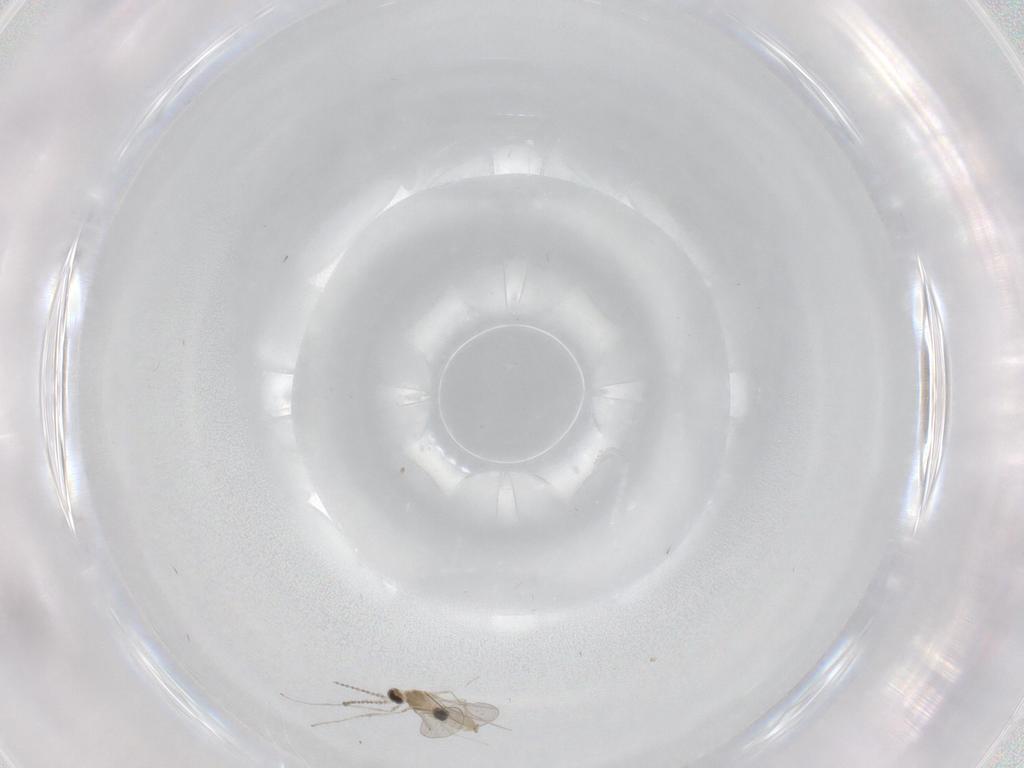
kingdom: Animalia
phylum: Arthropoda
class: Insecta
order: Diptera
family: Cecidomyiidae
